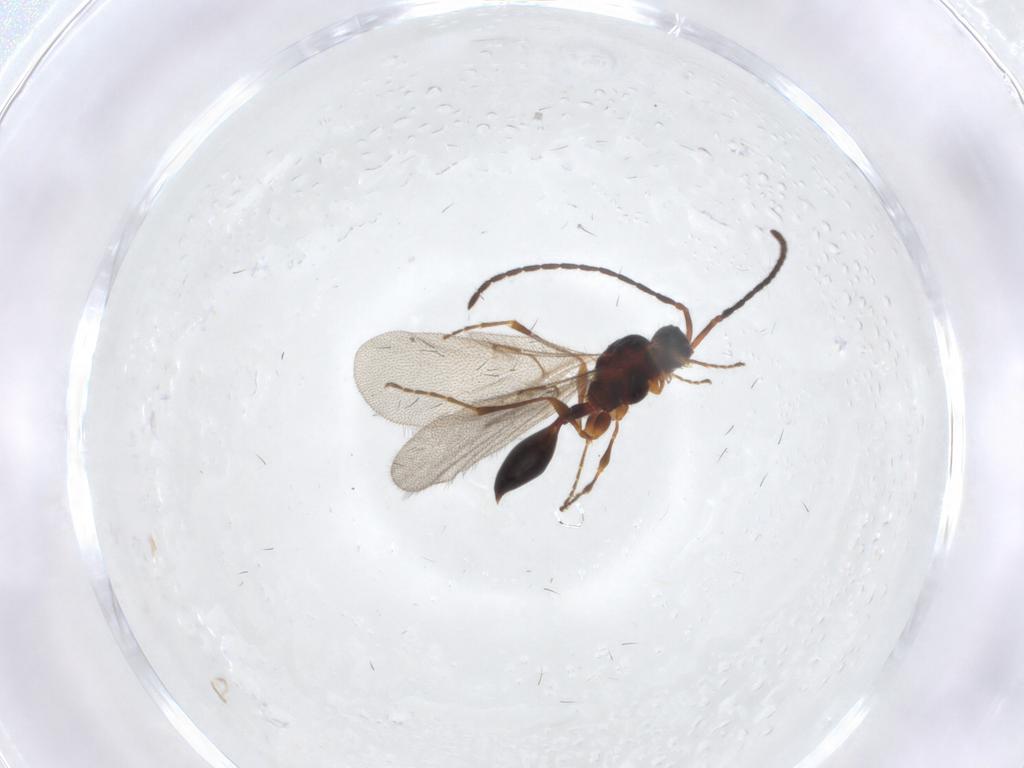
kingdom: Animalia
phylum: Arthropoda
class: Insecta
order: Hymenoptera
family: Diapriidae
